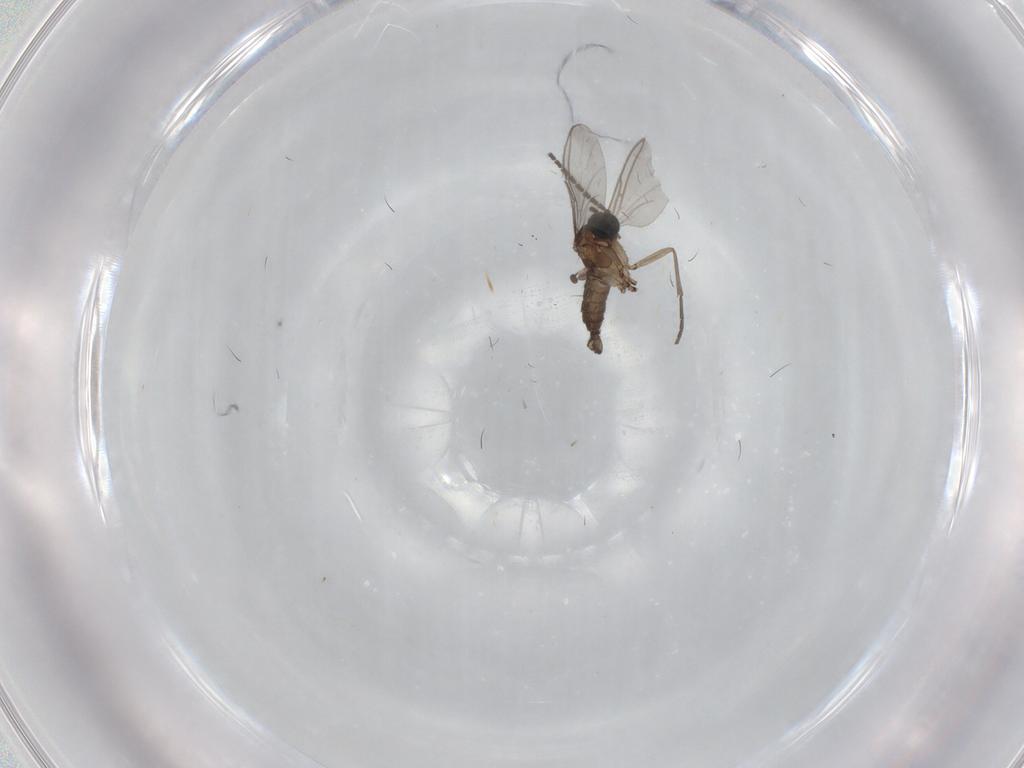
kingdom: Animalia
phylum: Arthropoda
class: Insecta
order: Diptera
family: Sciaridae
